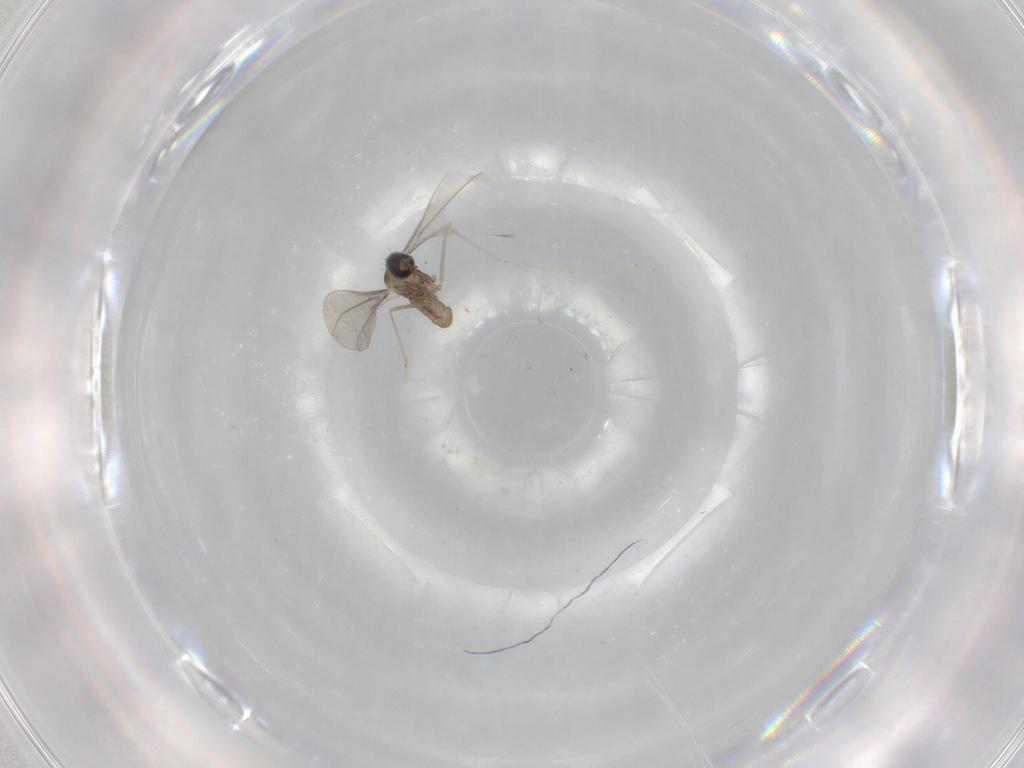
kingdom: Animalia
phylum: Arthropoda
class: Insecta
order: Diptera
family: Cecidomyiidae
